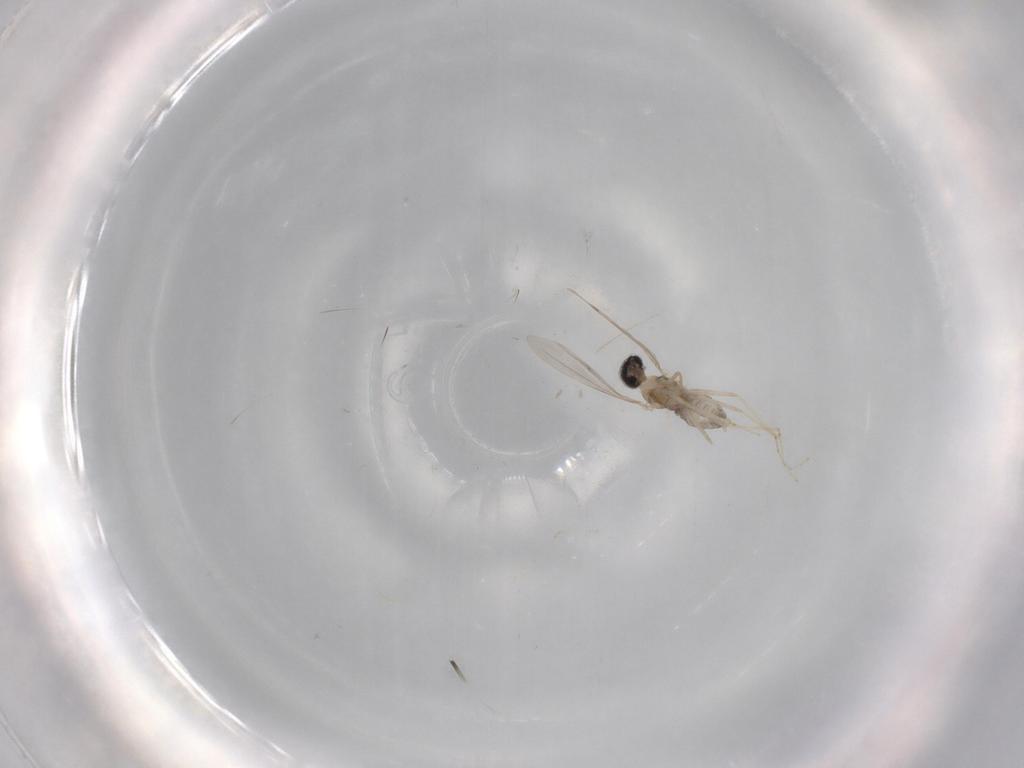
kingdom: Animalia
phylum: Arthropoda
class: Insecta
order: Diptera
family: Cecidomyiidae
